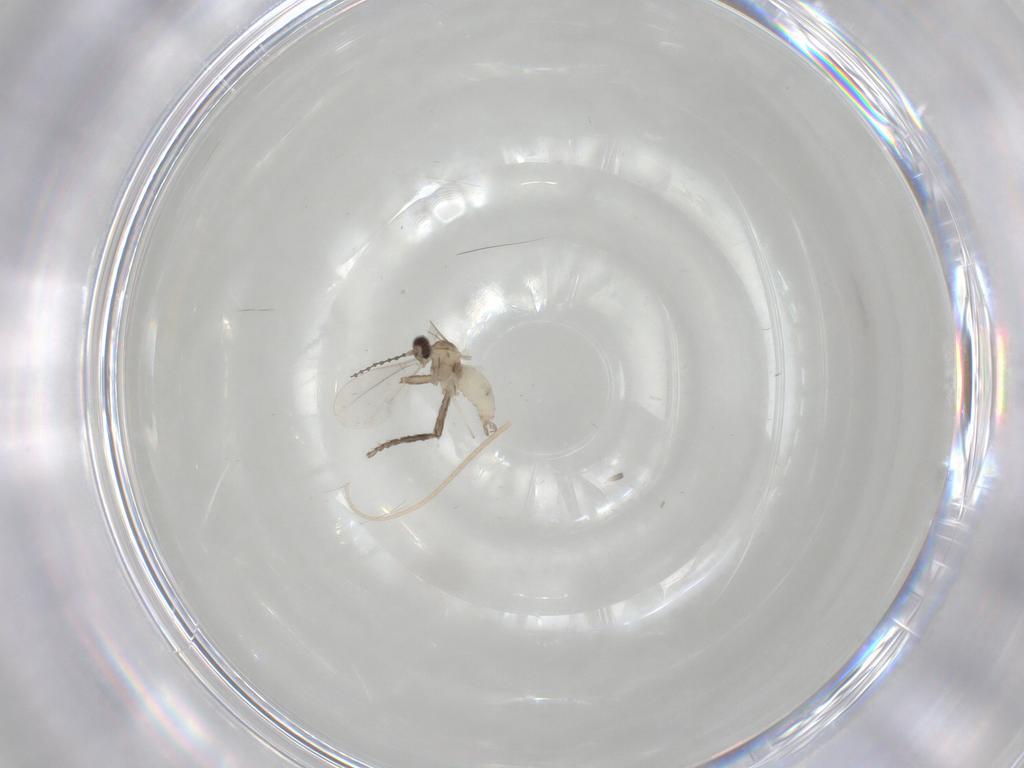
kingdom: Animalia
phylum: Arthropoda
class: Insecta
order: Diptera
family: Cecidomyiidae
